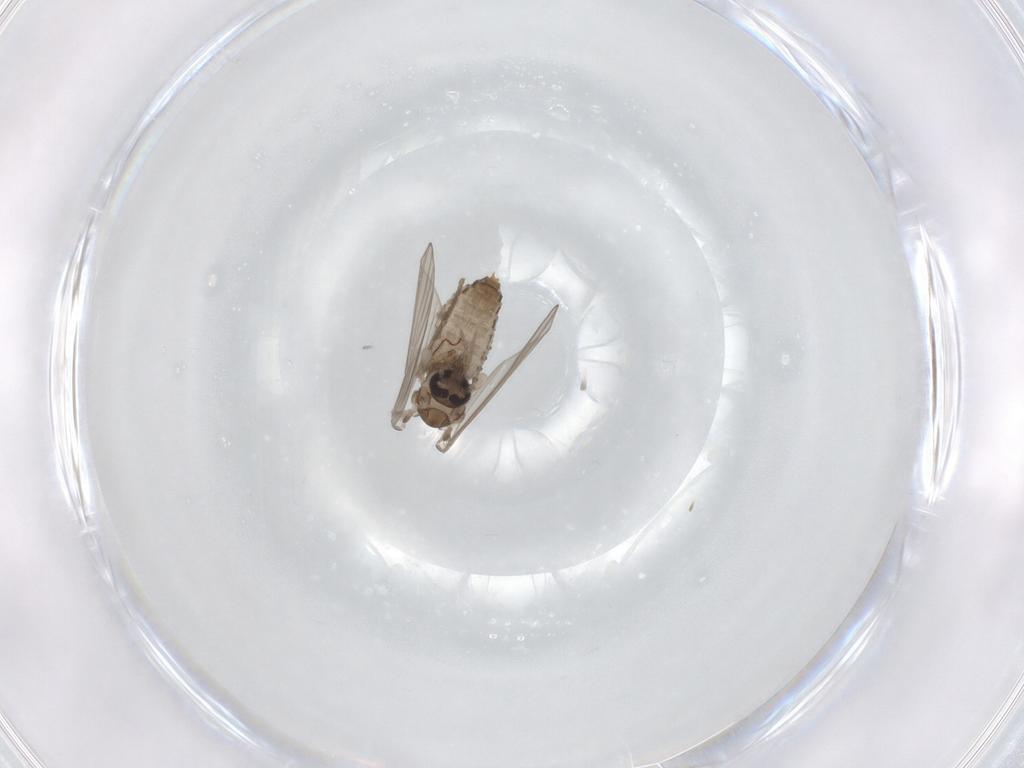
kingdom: Animalia
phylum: Arthropoda
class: Insecta
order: Diptera
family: Psychodidae
